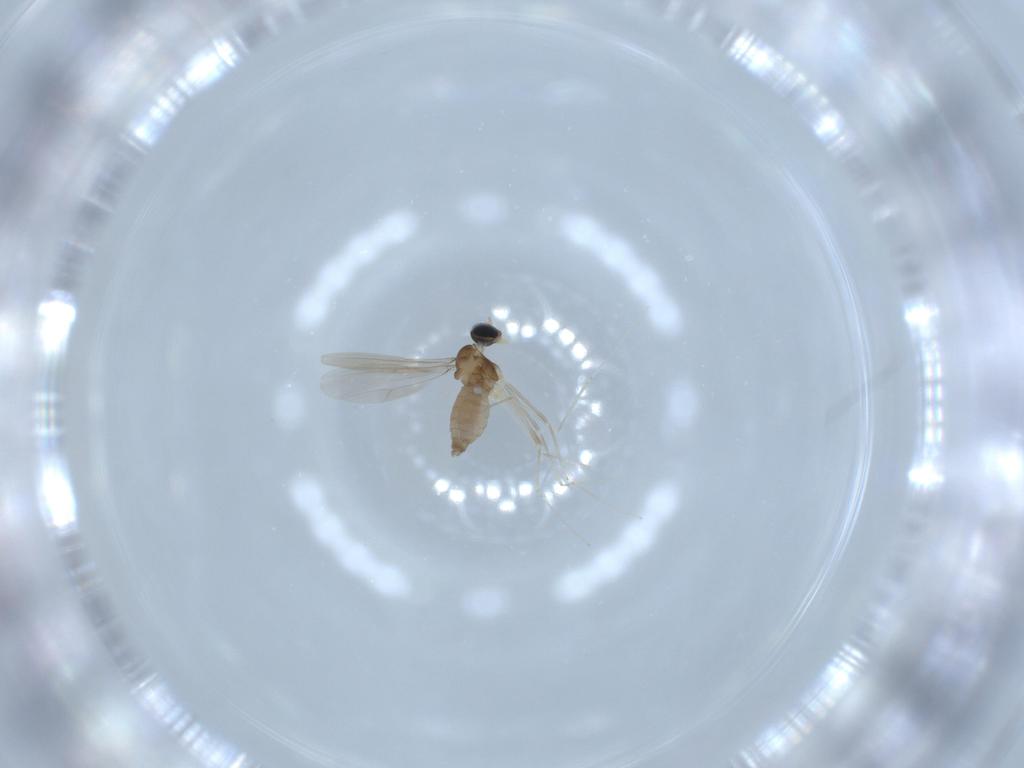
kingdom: Animalia
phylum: Arthropoda
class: Insecta
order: Diptera
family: Cecidomyiidae
